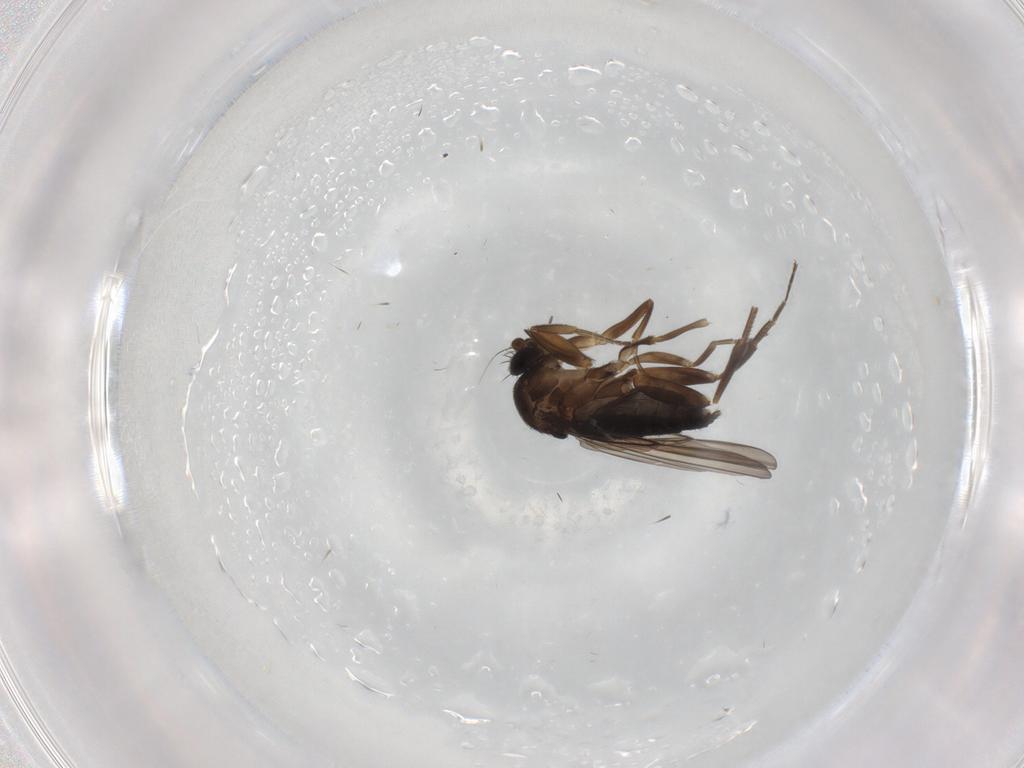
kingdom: Animalia
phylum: Arthropoda
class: Insecta
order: Diptera
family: Phoridae
